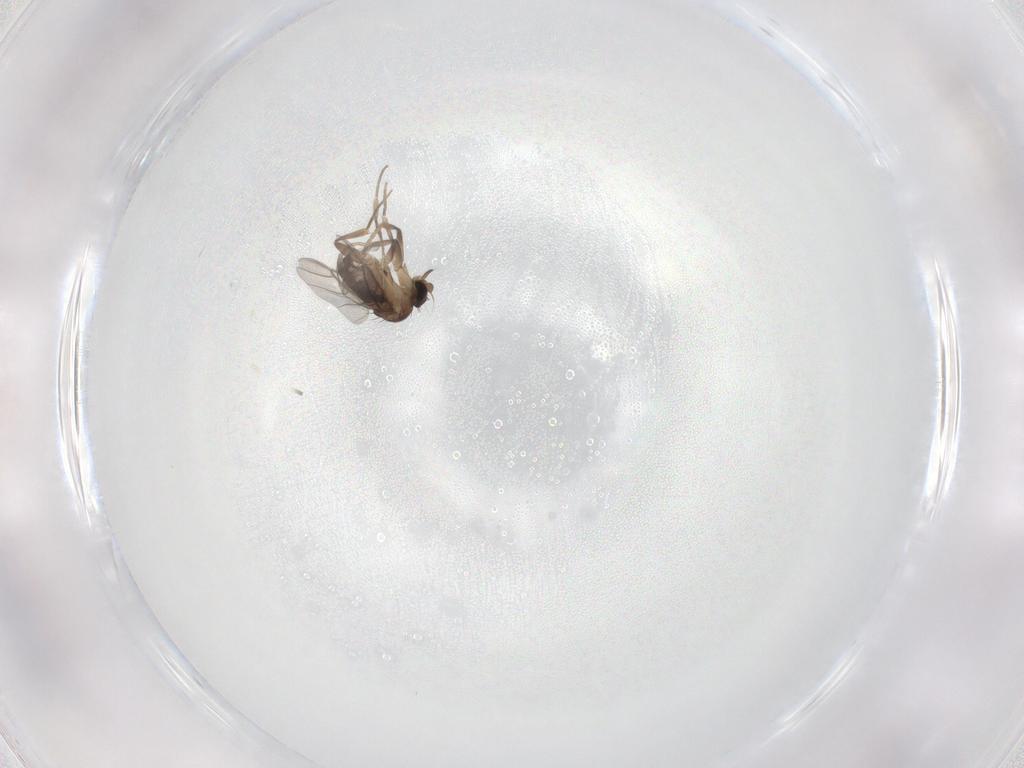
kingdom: Animalia
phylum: Arthropoda
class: Insecta
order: Diptera
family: Phoridae
